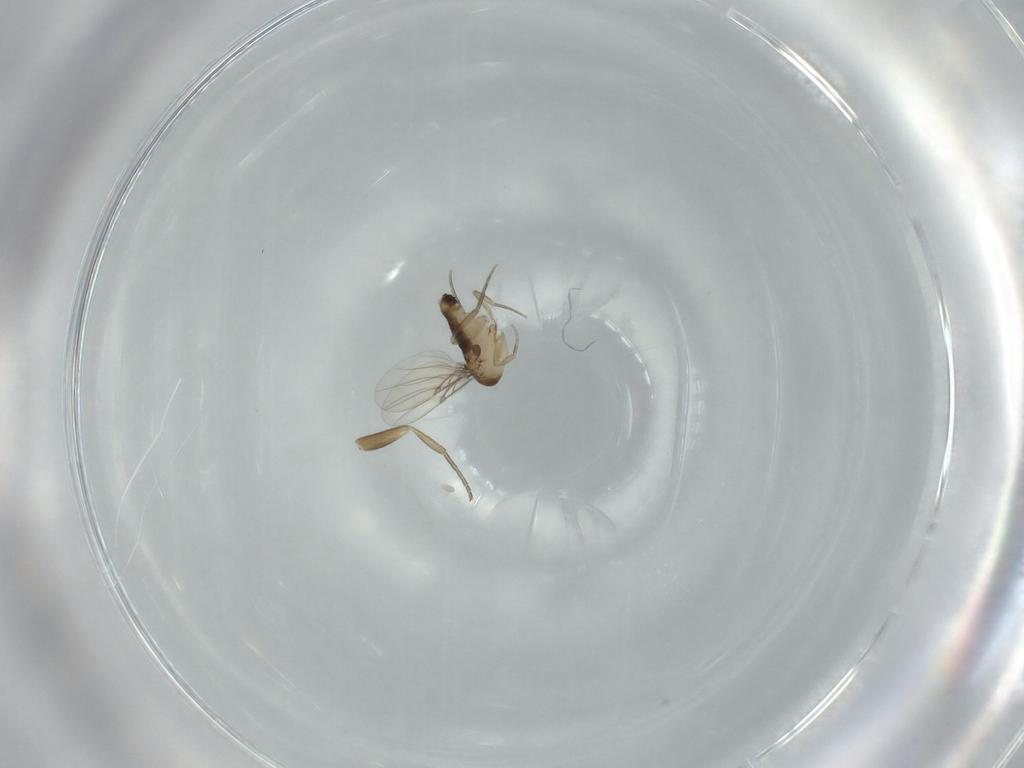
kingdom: Animalia
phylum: Arthropoda
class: Insecta
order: Diptera
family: Phoridae
